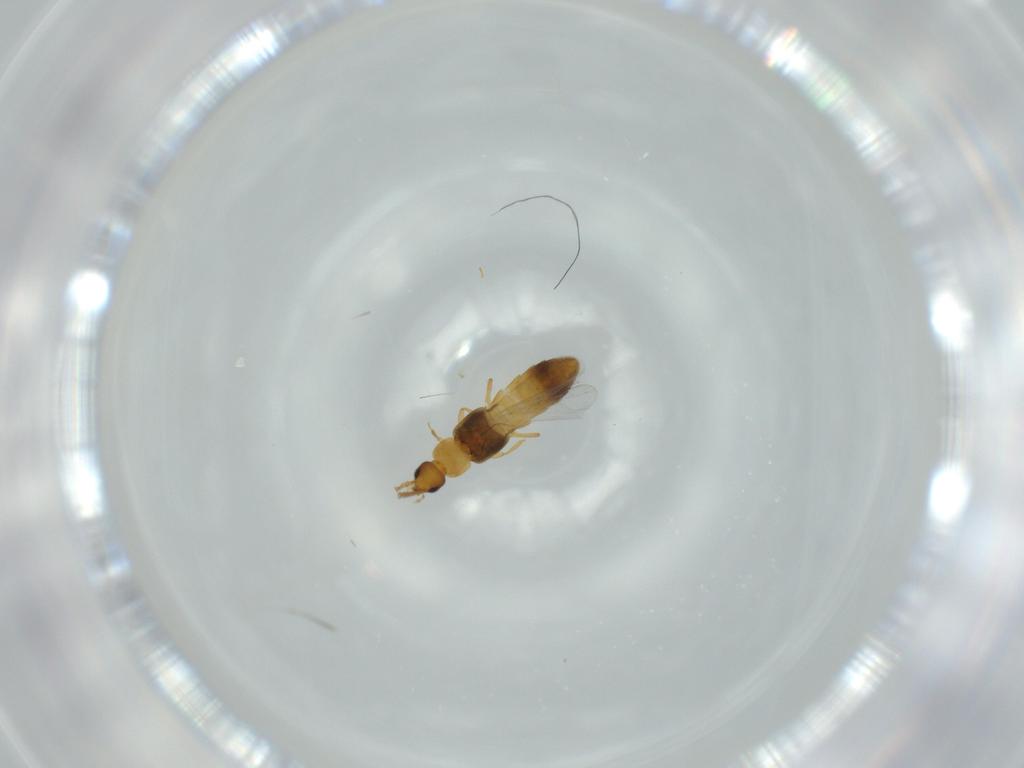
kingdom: Animalia
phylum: Arthropoda
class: Insecta
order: Coleoptera
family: Staphylinidae
